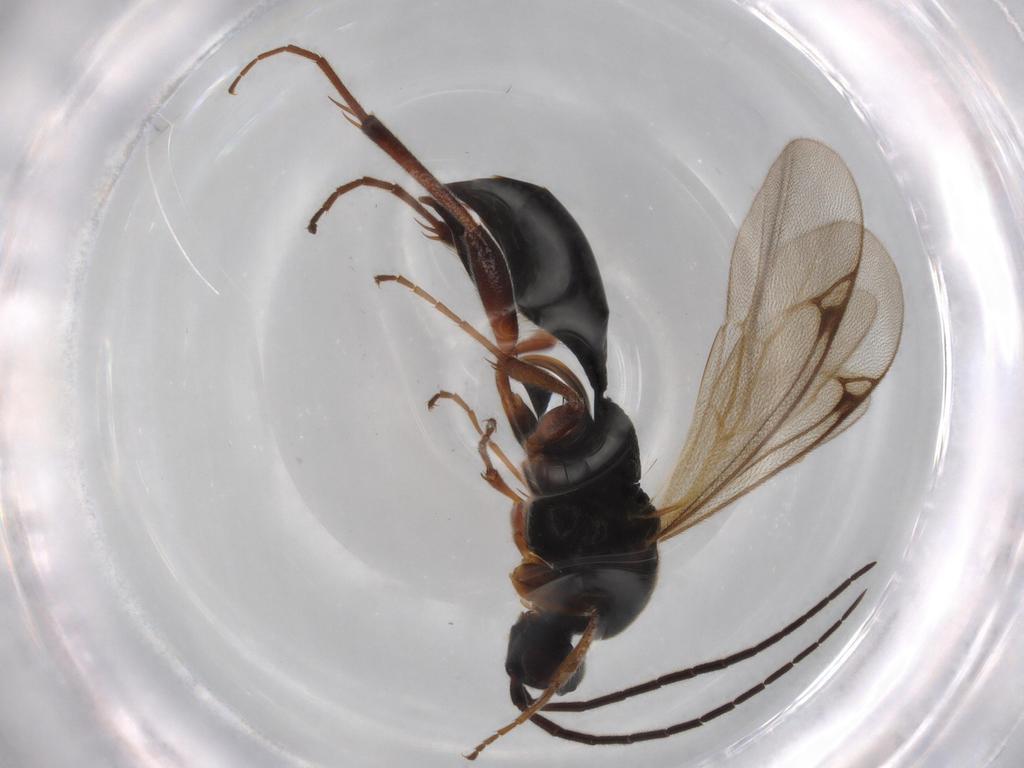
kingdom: Animalia
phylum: Arthropoda
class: Insecta
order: Hymenoptera
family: Proctotrupidae
